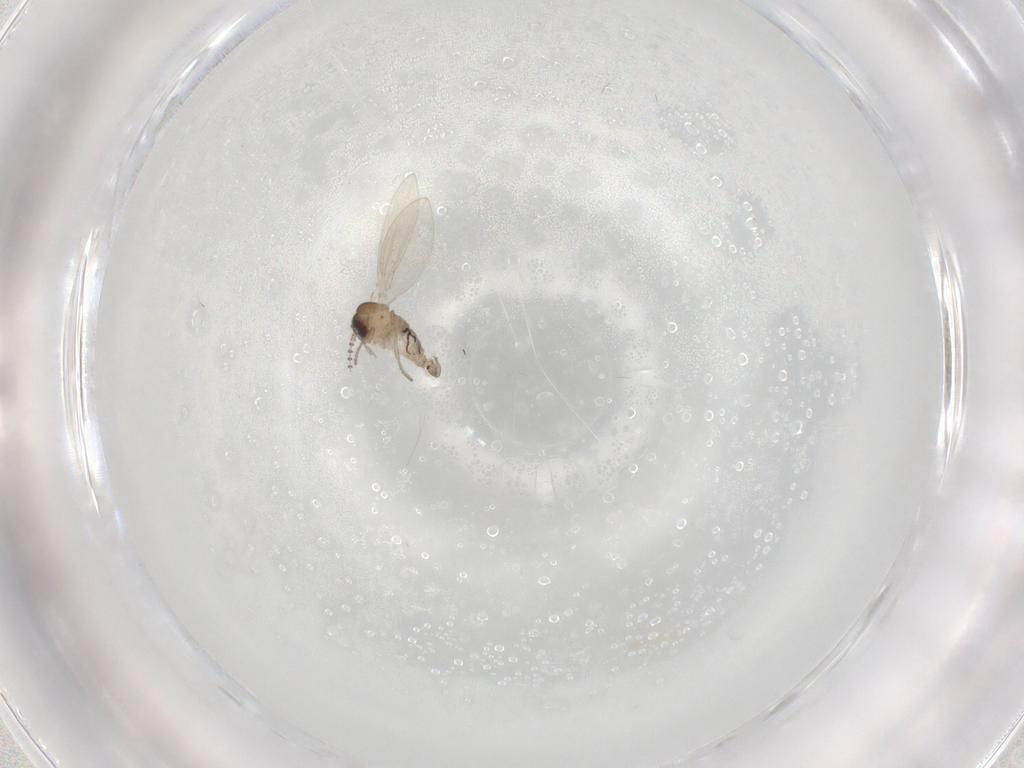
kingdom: Animalia
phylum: Arthropoda
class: Insecta
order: Diptera
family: Psychodidae
